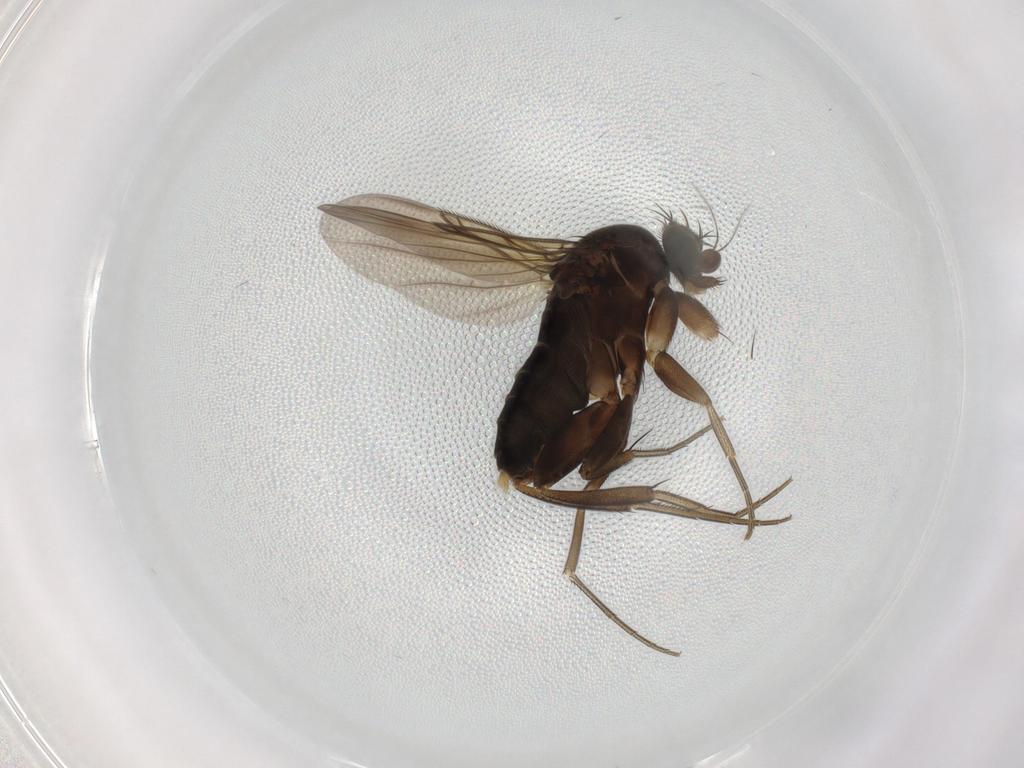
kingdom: Animalia
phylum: Arthropoda
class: Insecta
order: Diptera
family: Phoridae
